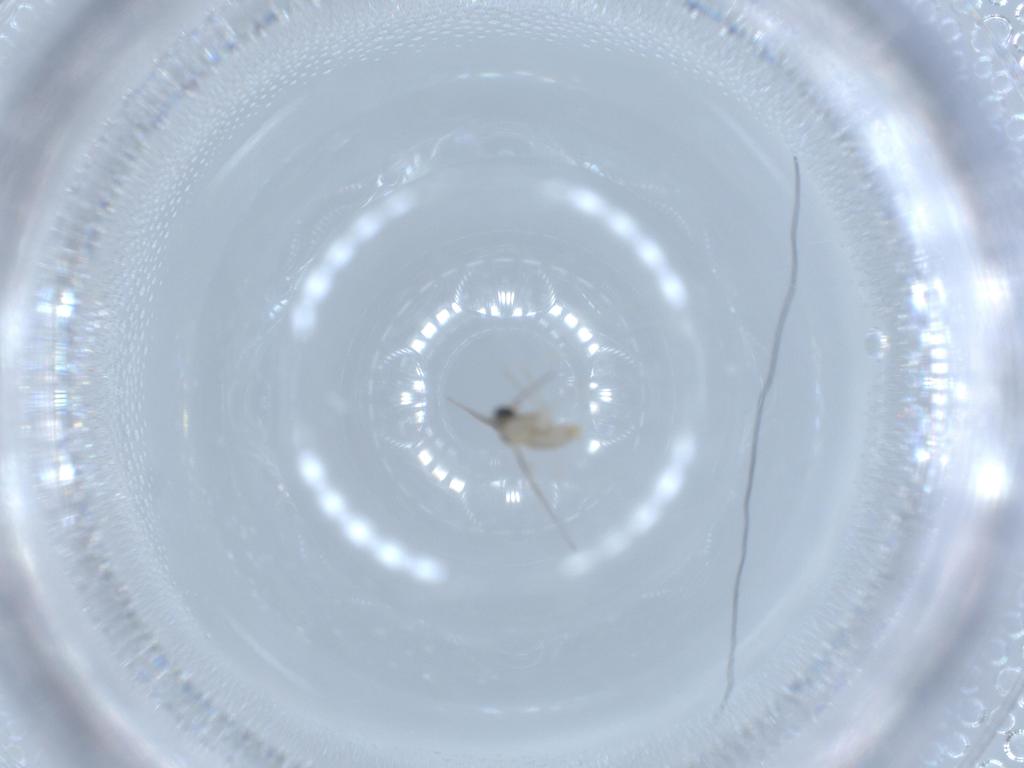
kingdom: Animalia
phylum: Arthropoda
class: Insecta
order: Diptera
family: Cecidomyiidae
